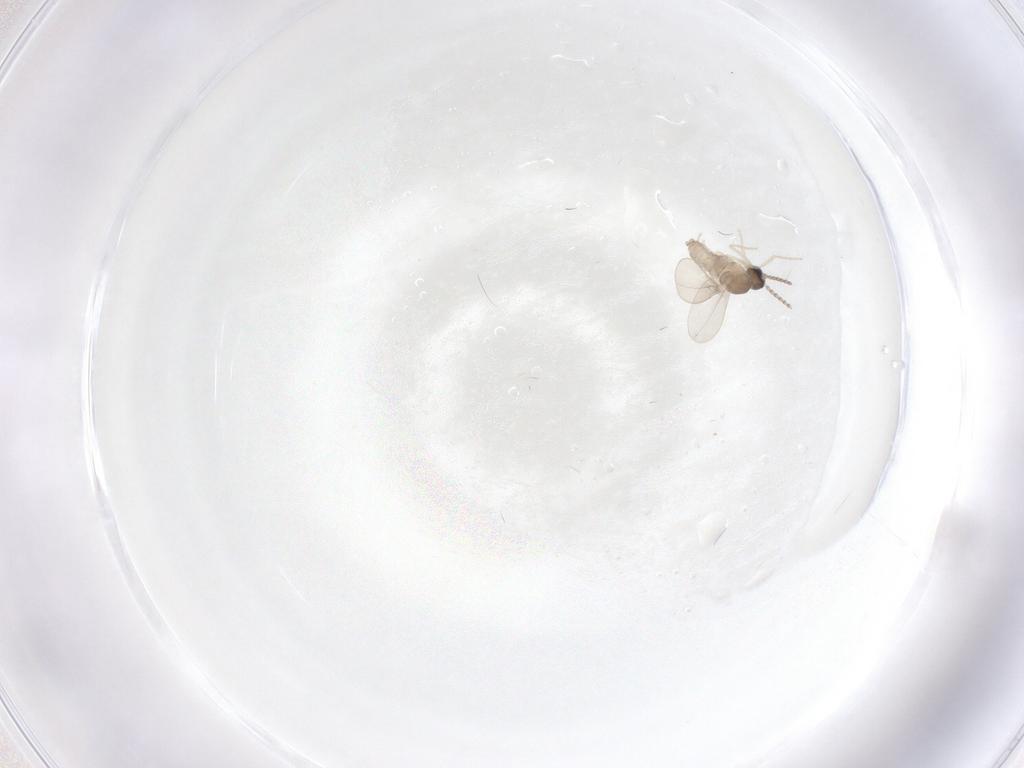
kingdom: Animalia
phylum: Arthropoda
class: Insecta
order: Diptera
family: Cecidomyiidae
